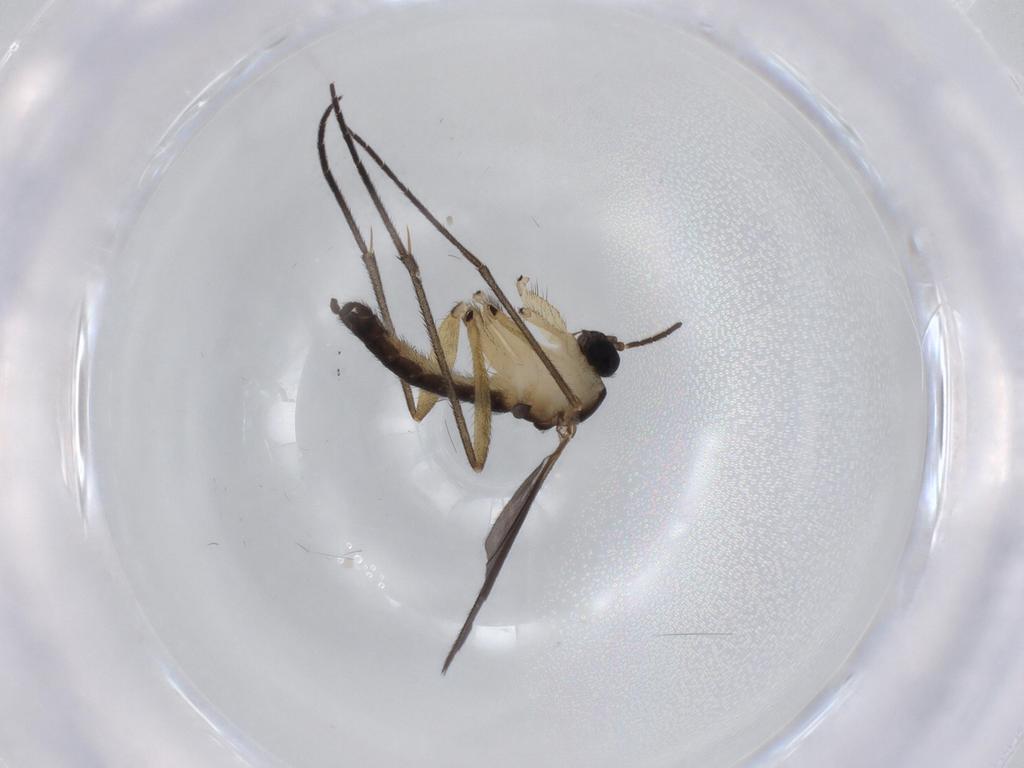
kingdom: Animalia
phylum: Arthropoda
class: Insecta
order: Diptera
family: Sciaridae
